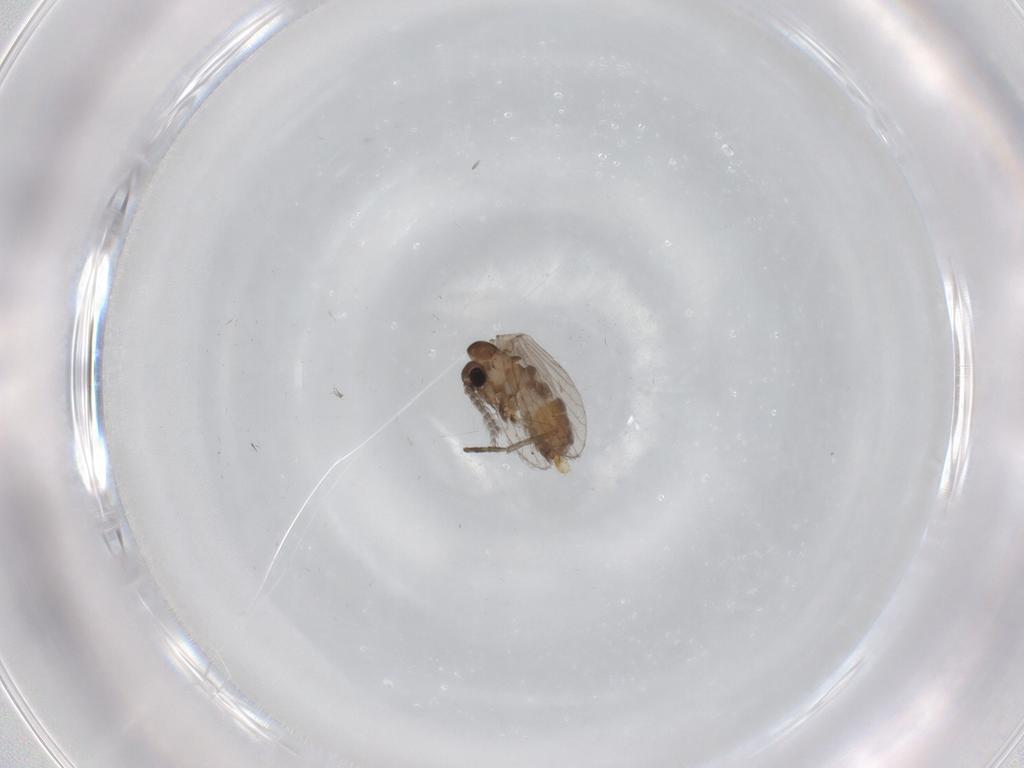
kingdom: Animalia
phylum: Arthropoda
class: Insecta
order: Diptera
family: Psychodidae
